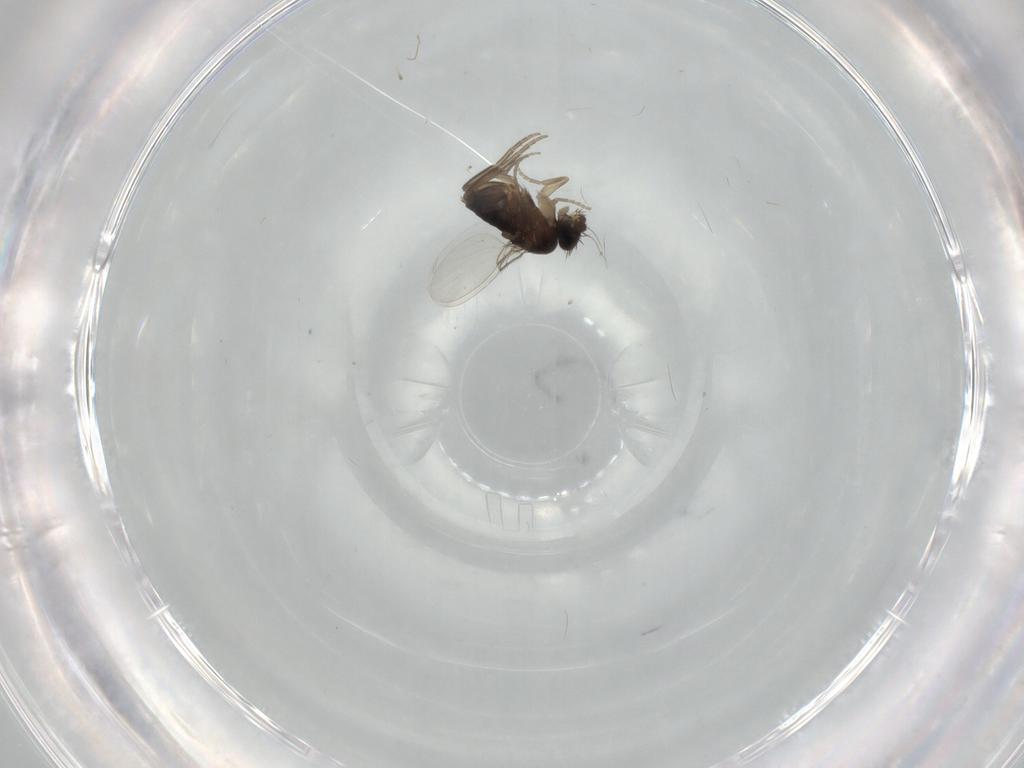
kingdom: Animalia
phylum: Arthropoda
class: Insecta
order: Diptera
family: Phoridae
